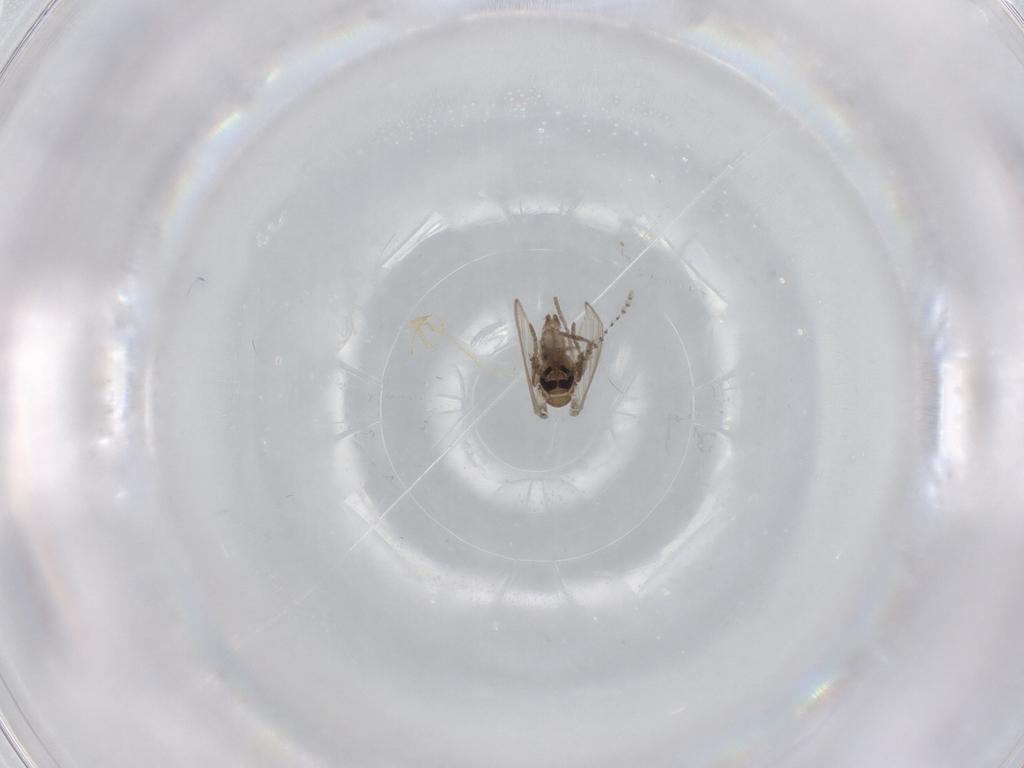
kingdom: Animalia
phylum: Arthropoda
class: Insecta
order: Diptera
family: Psychodidae
